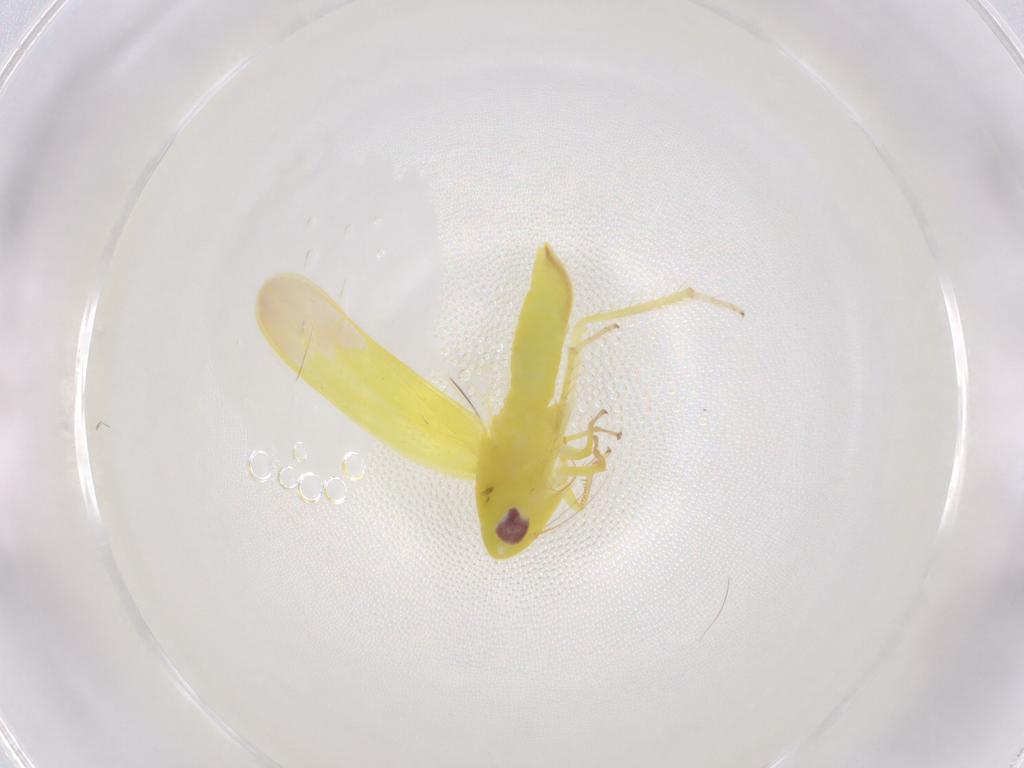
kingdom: Animalia
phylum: Arthropoda
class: Insecta
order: Hemiptera
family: Cicadellidae
